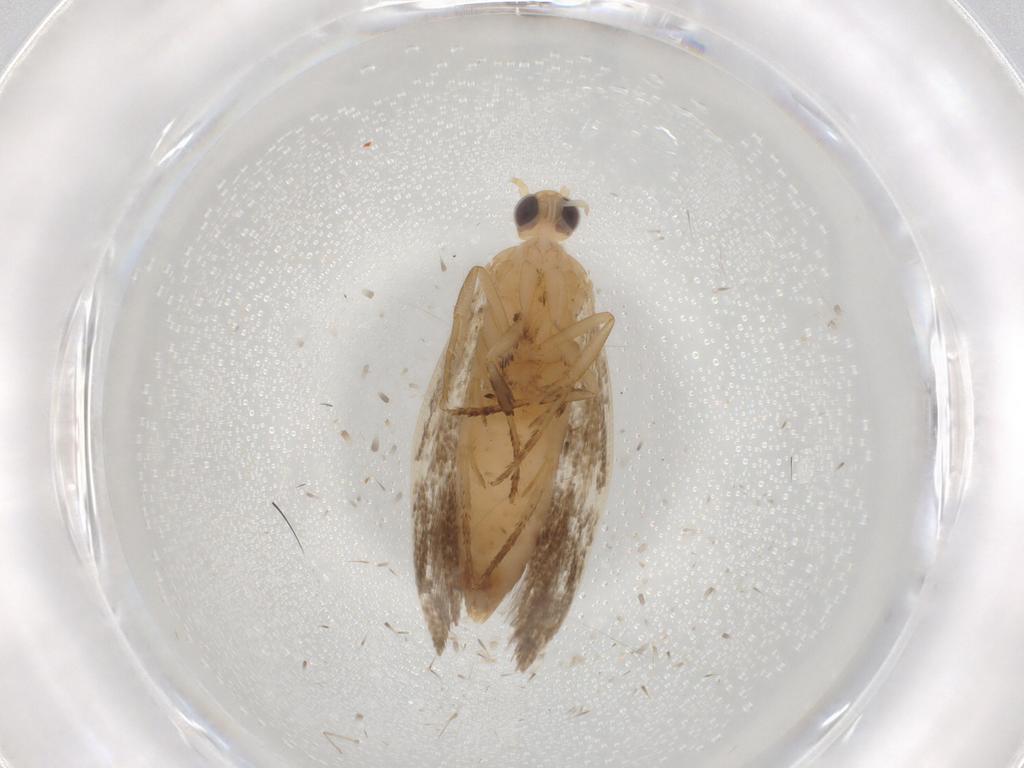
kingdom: Animalia
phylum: Arthropoda
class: Insecta
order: Lepidoptera
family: Ypsolophidae
